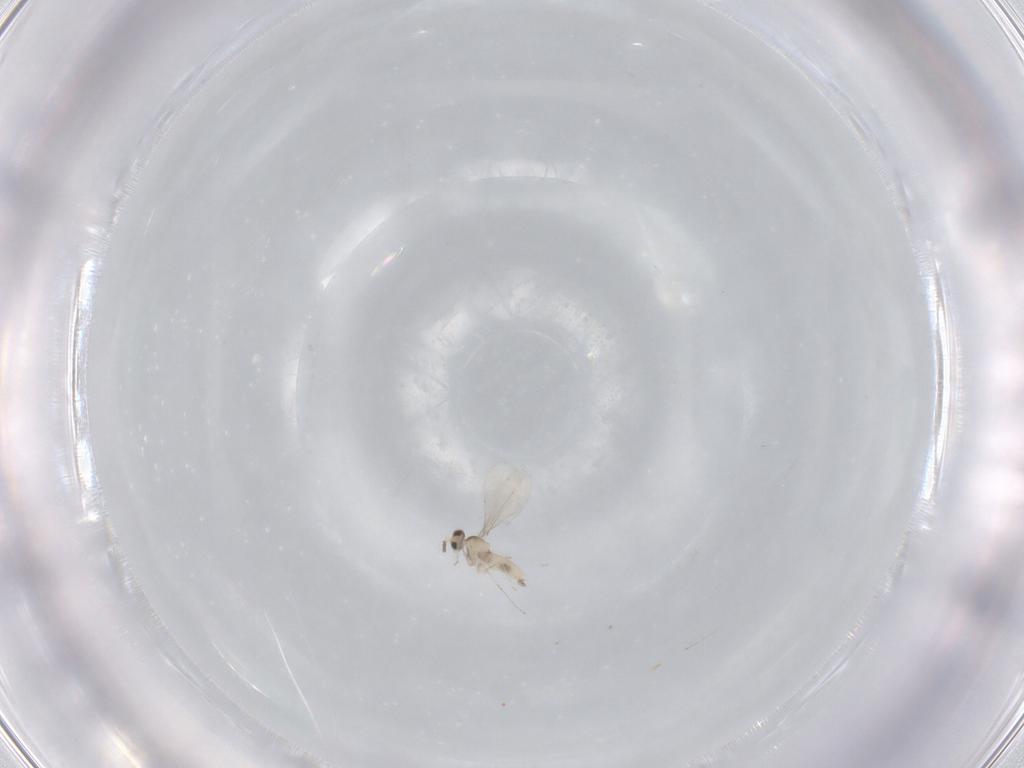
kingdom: Animalia
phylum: Arthropoda
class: Insecta
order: Diptera
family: Cecidomyiidae
